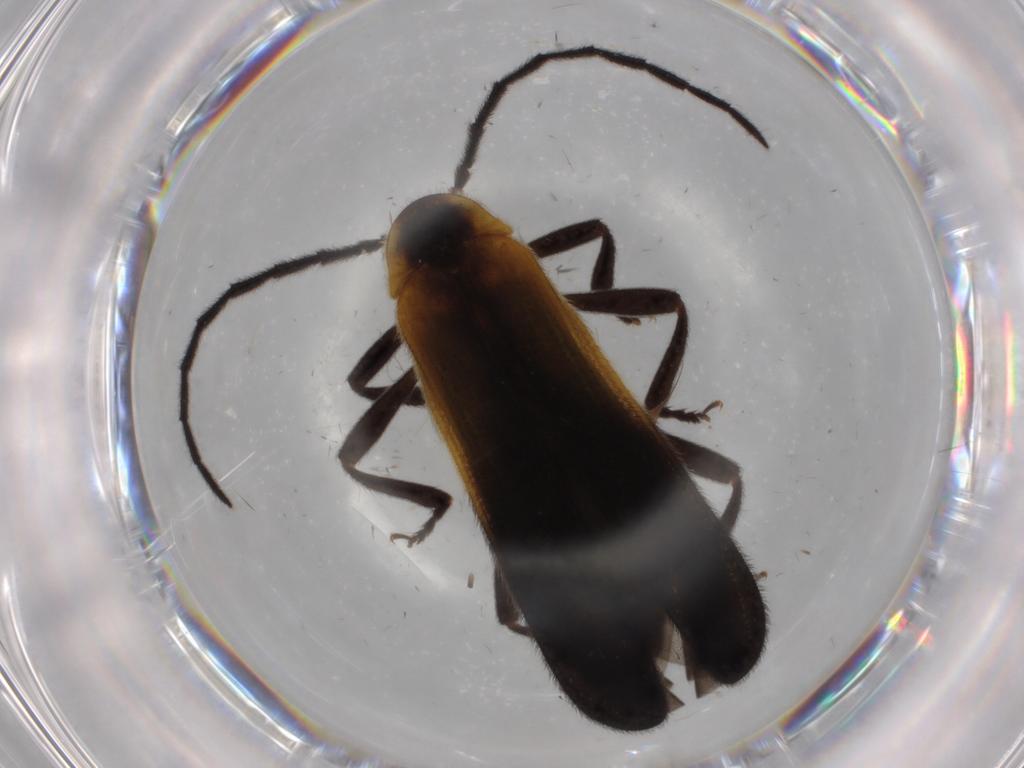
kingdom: Animalia
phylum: Arthropoda
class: Insecta
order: Coleoptera
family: Lycidae
